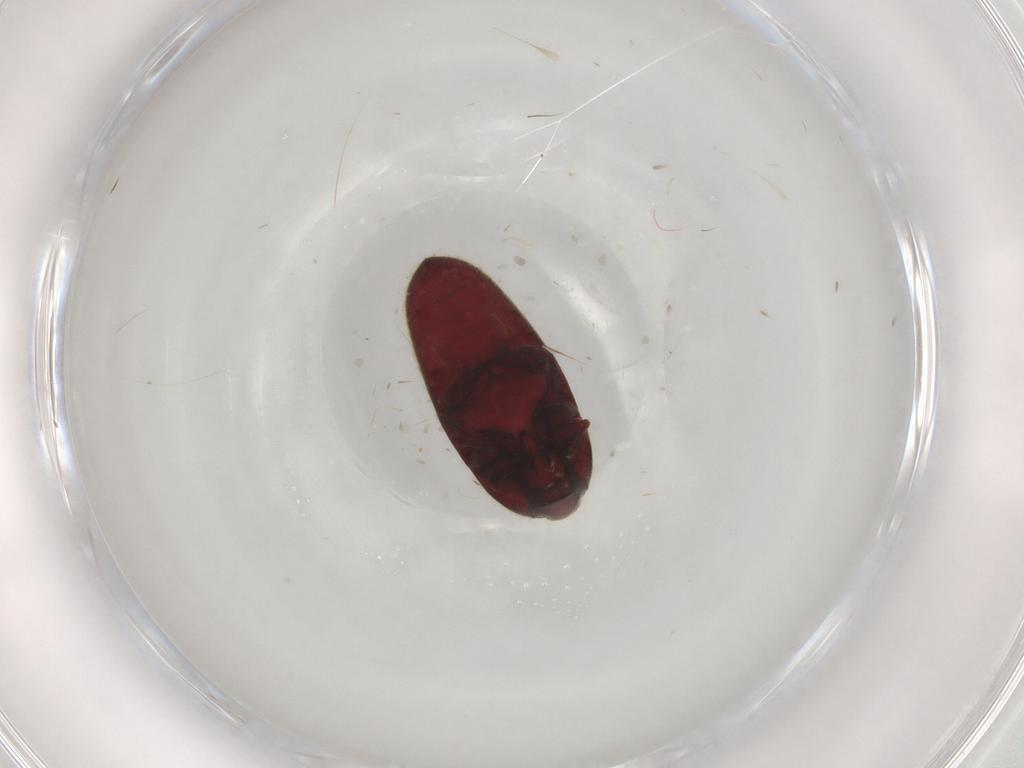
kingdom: Animalia
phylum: Arthropoda
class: Insecta
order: Coleoptera
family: Throscidae
